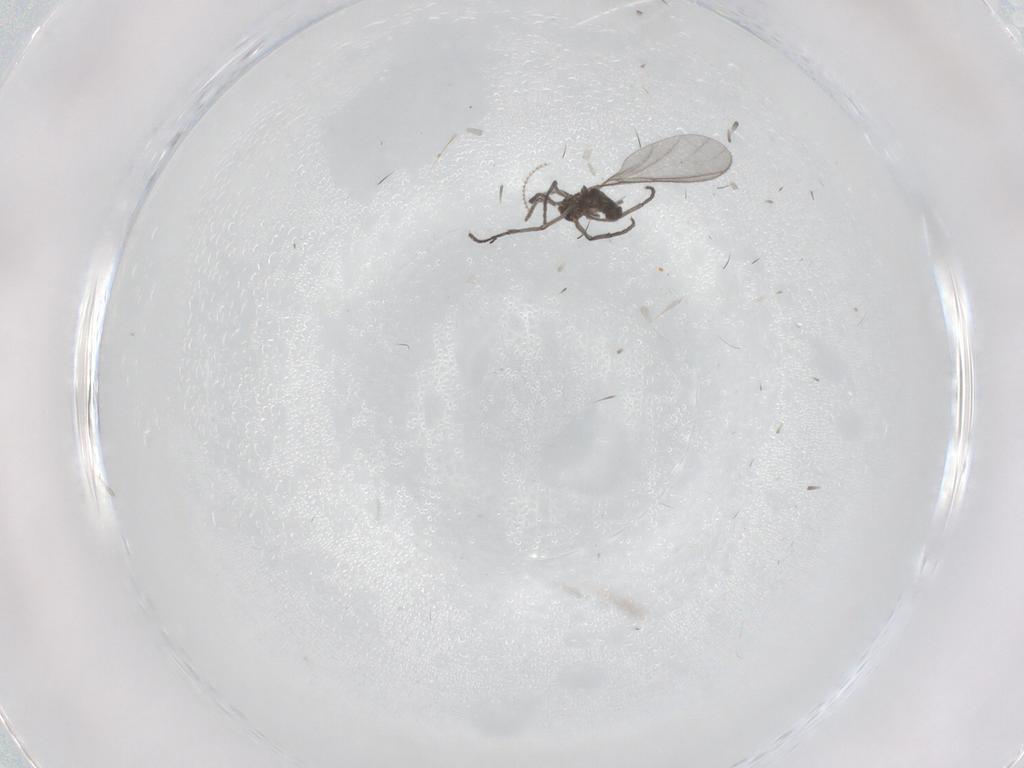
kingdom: Animalia
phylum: Arthropoda
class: Insecta
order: Diptera
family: Sciaridae
